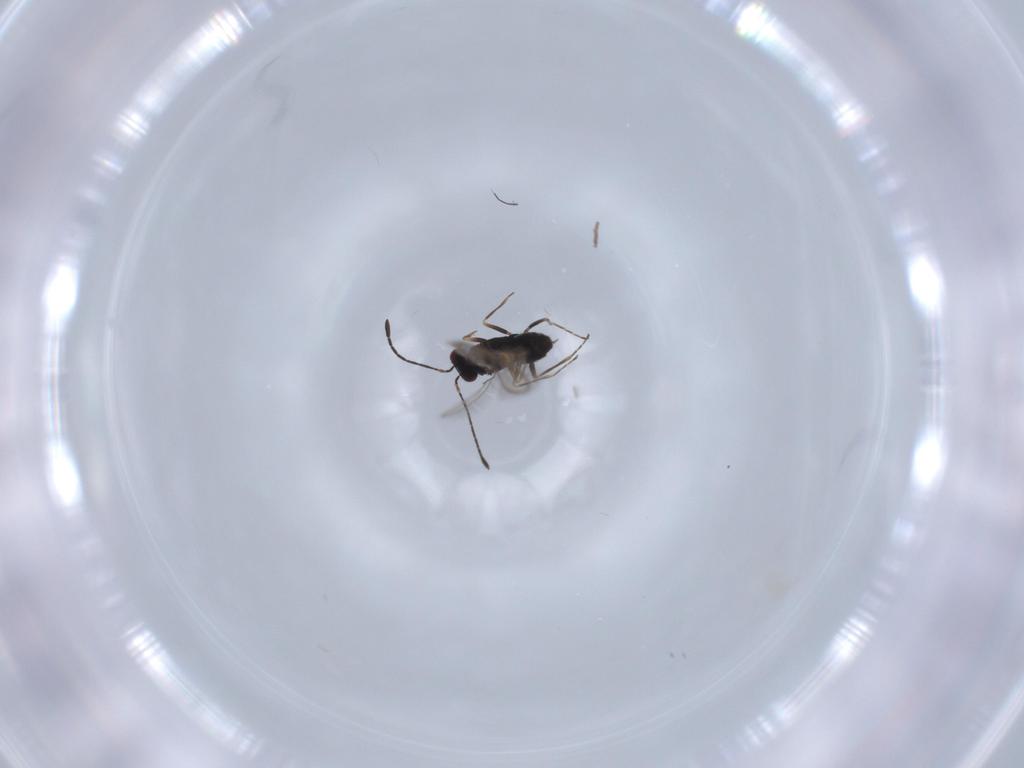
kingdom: Animalia
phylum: Arthropoda
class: Insecta
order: Hymenoptera
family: Mymaridae
